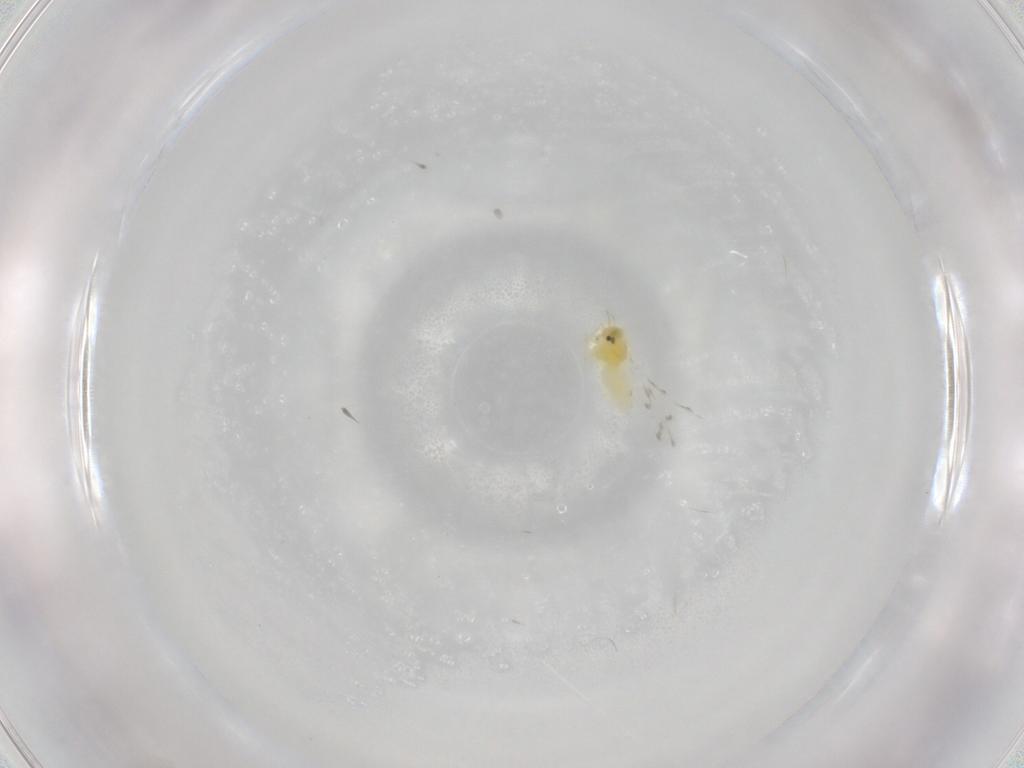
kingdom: Animalia
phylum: Arthropoda
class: Insecta
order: Hemiptera
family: Aleyrodidae
